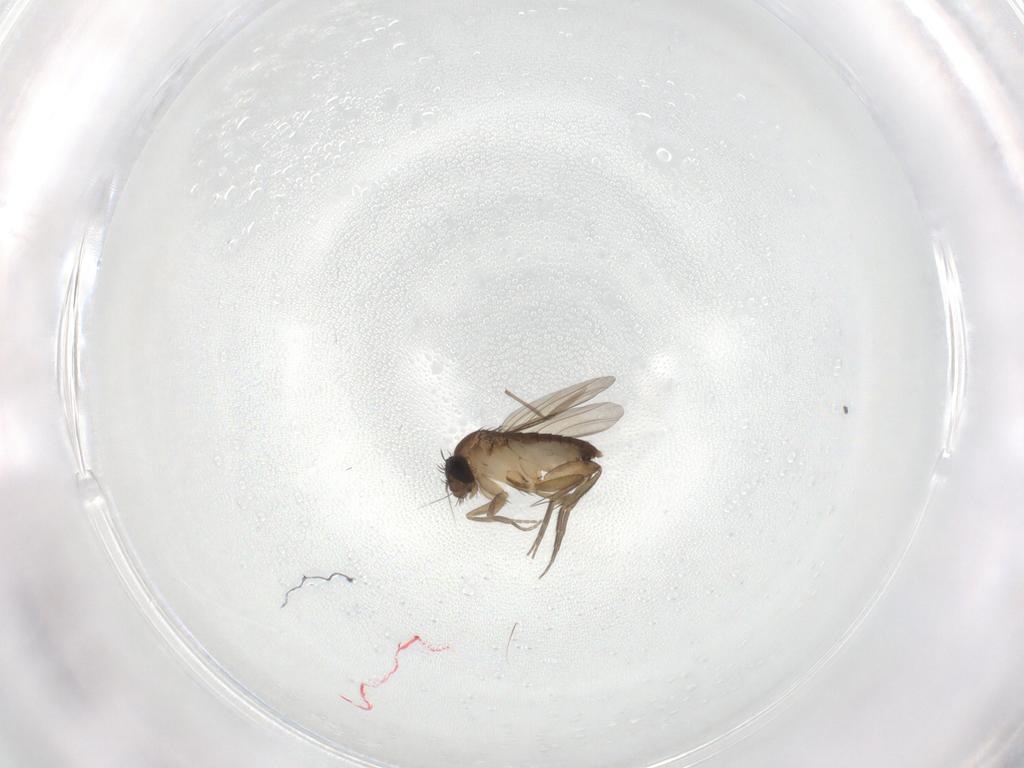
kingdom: Animalia
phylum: Arthropoda
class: Insecta
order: Diptera
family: Phoridae
